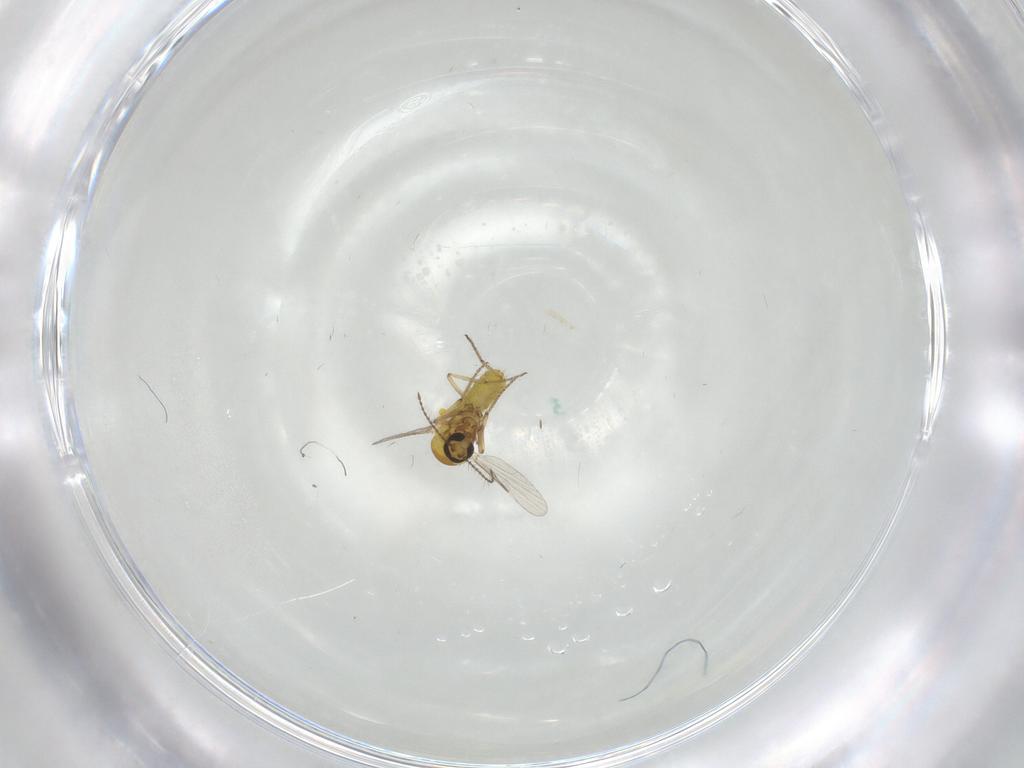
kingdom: Animalia
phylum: Arthropoda
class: Insecta
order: Diptera
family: Ceratopogonidae
